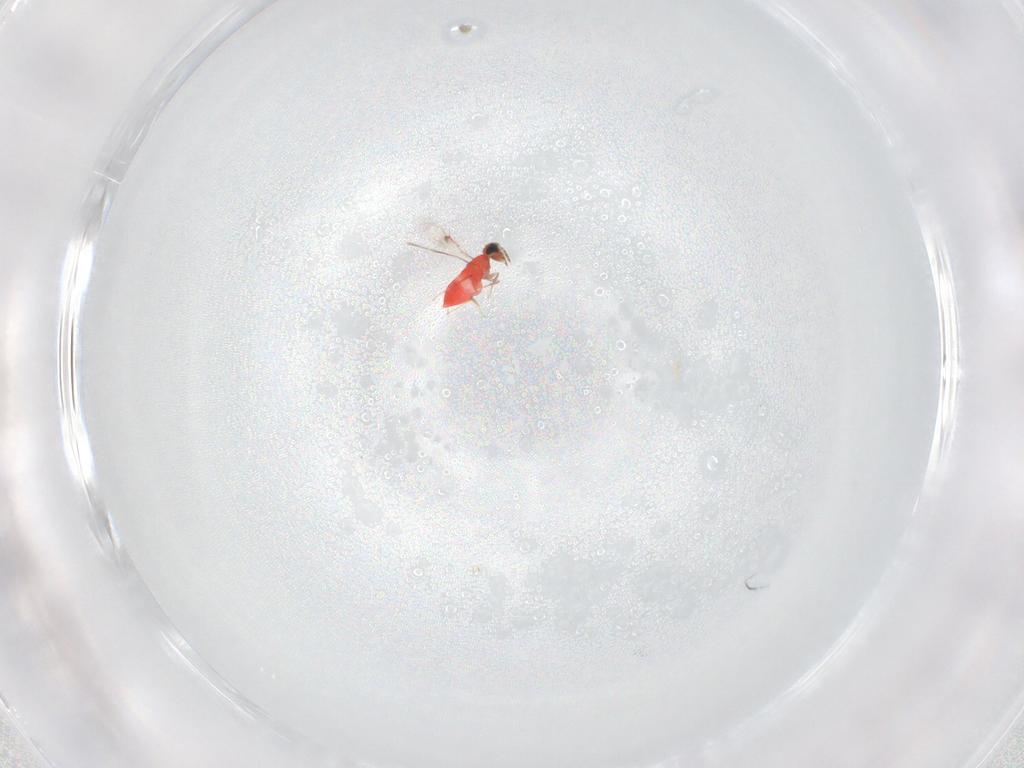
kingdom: Animalia
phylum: Arthropoda
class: Insecta
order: Hymenoptera
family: Trichogrammatidae
